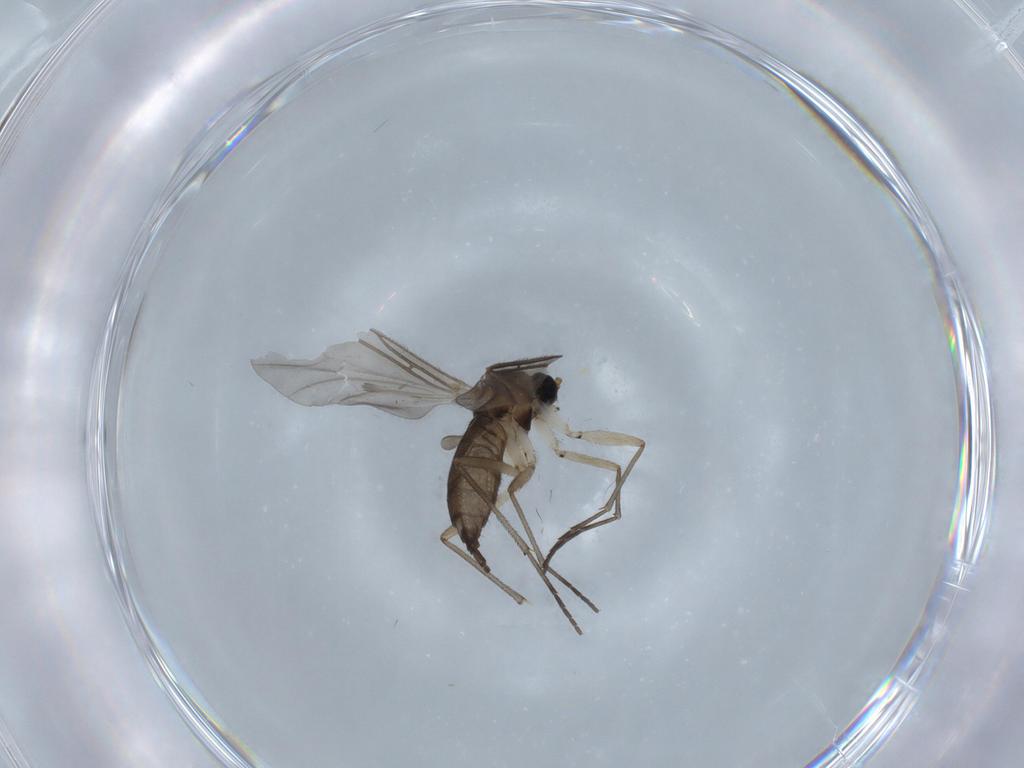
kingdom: Animalia
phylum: Arthropoda
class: Insecta
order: Diptera
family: Sciaridae
